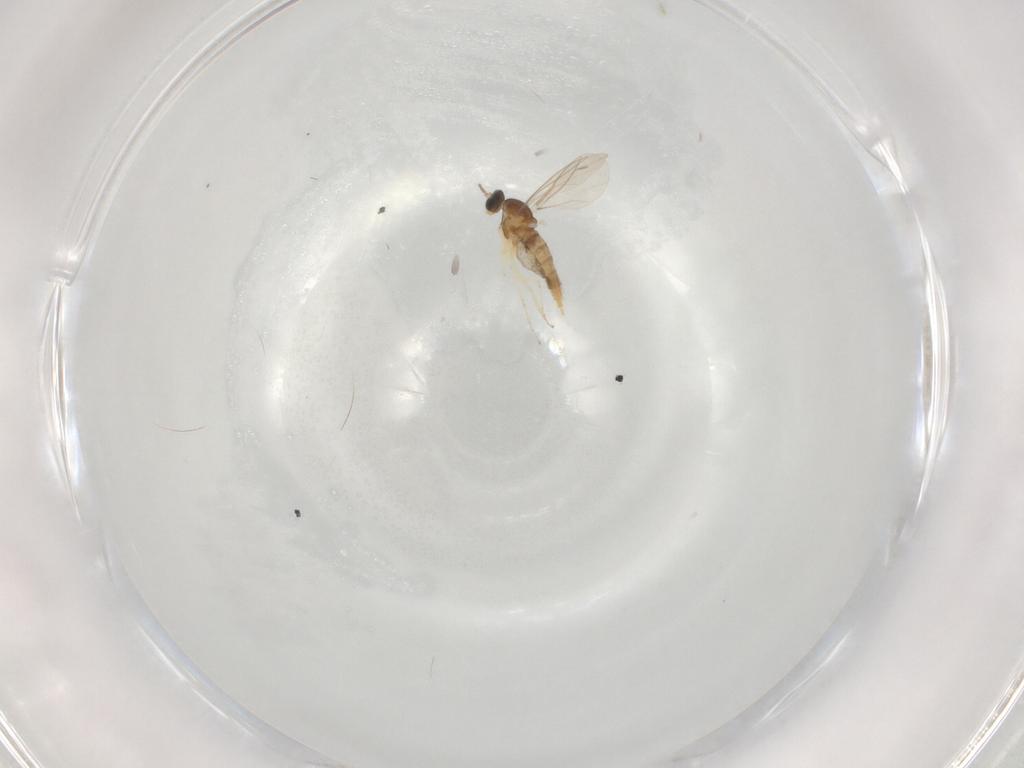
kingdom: Animalia
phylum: Arthropoda
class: Insecta
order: Diptera
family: Cecidomyiidae
